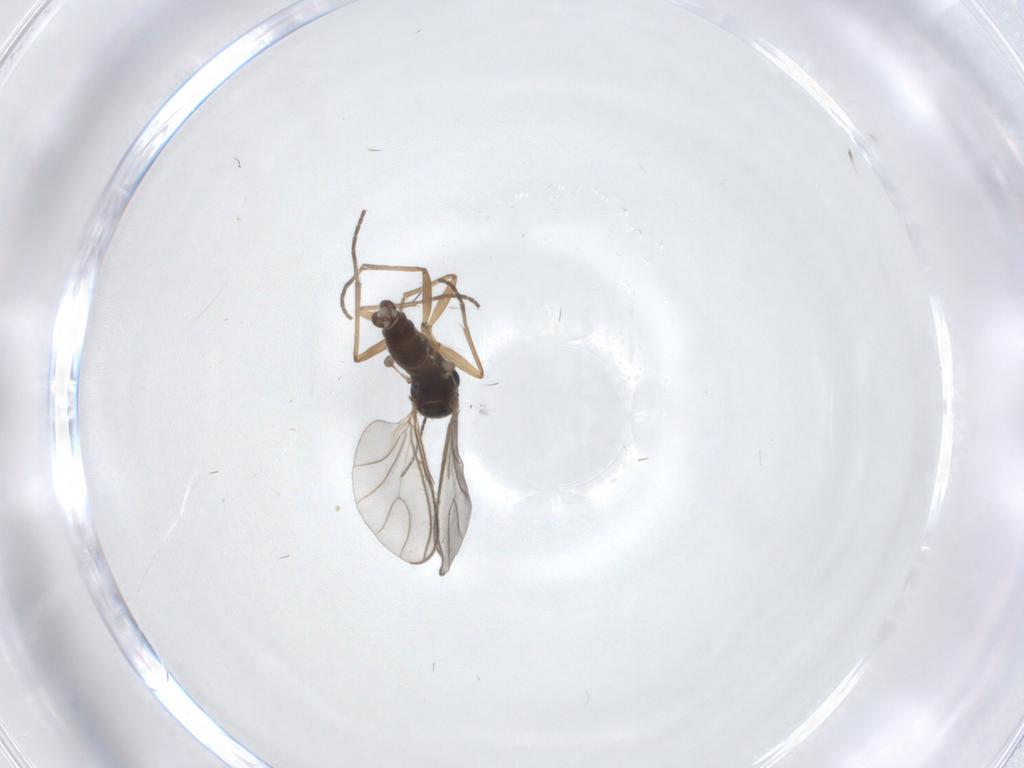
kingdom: Animalia
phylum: Arthropoda
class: Insecta
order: Diptera
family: Sciaridae
